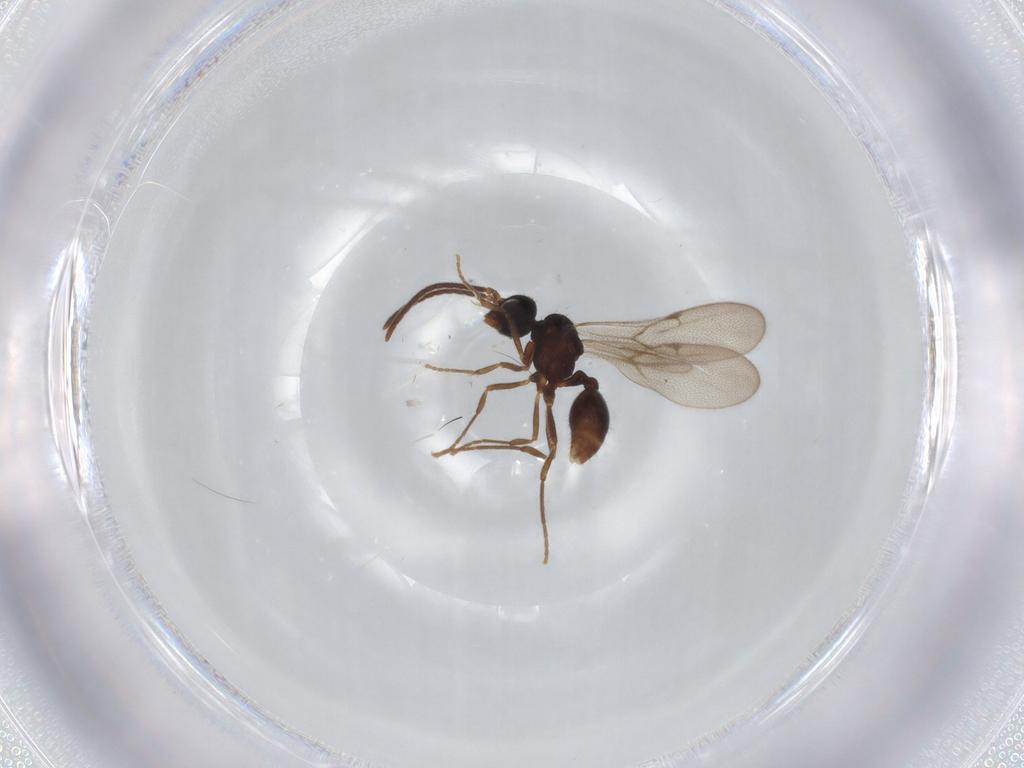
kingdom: Animalia
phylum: Arthropoda
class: Insecta
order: Hymenoptera
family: Formicidae
